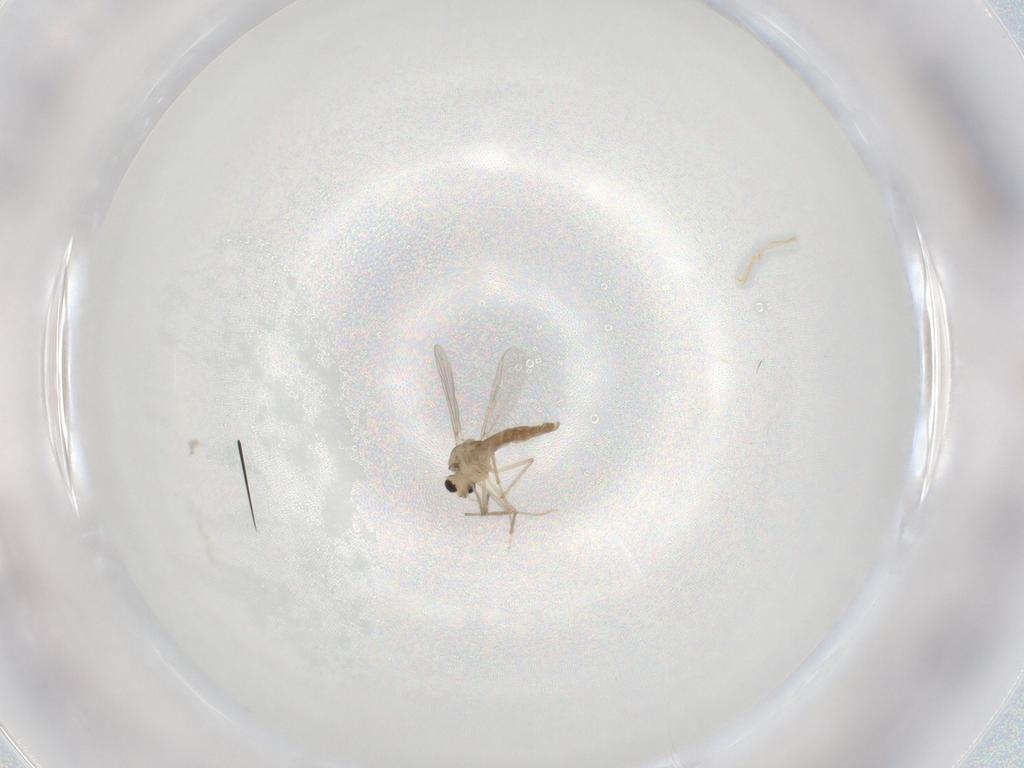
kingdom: Animalia
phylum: Arthropoda
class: Insecta
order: Diptera
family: Chironomidae
